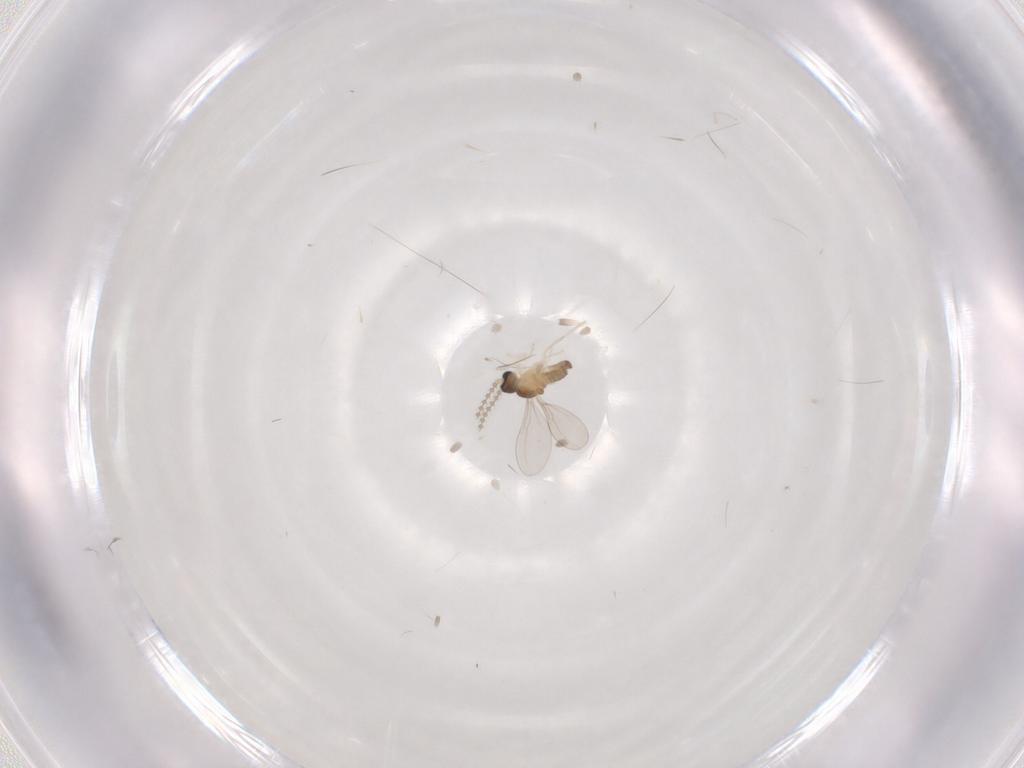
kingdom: Animalia
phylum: Arthropoda
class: Insecta
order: Diptera
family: Cecidomyiidae
